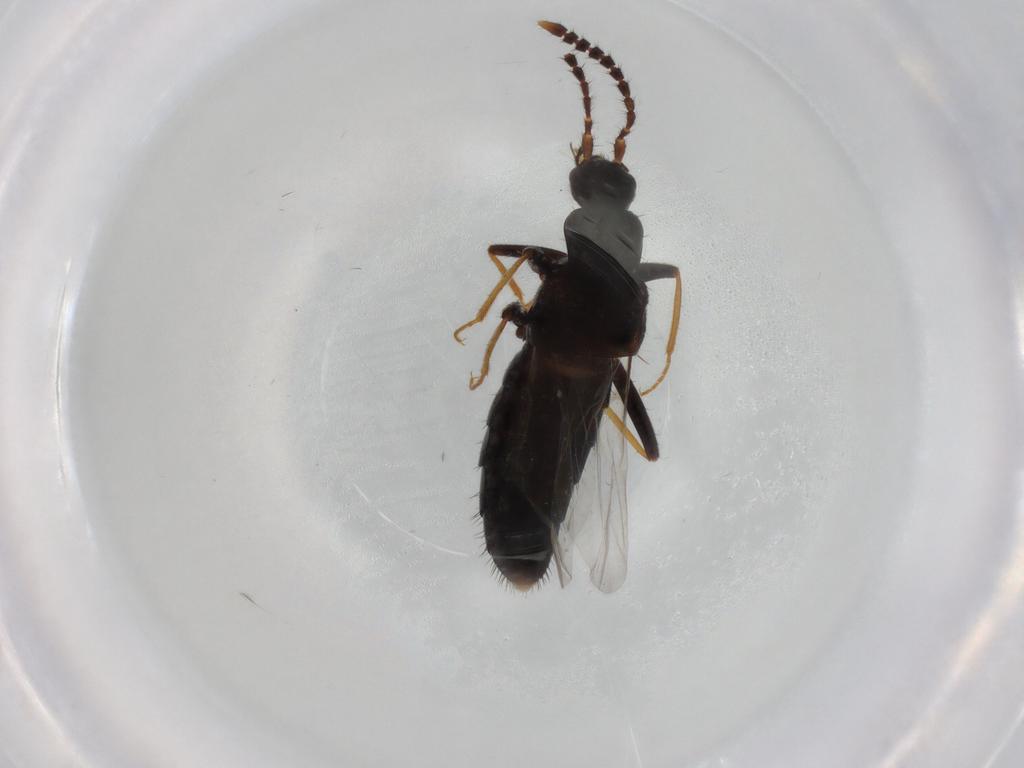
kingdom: Animalia
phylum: Arthropoda
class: Insecta
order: Coleoptera
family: Staphylinidae
